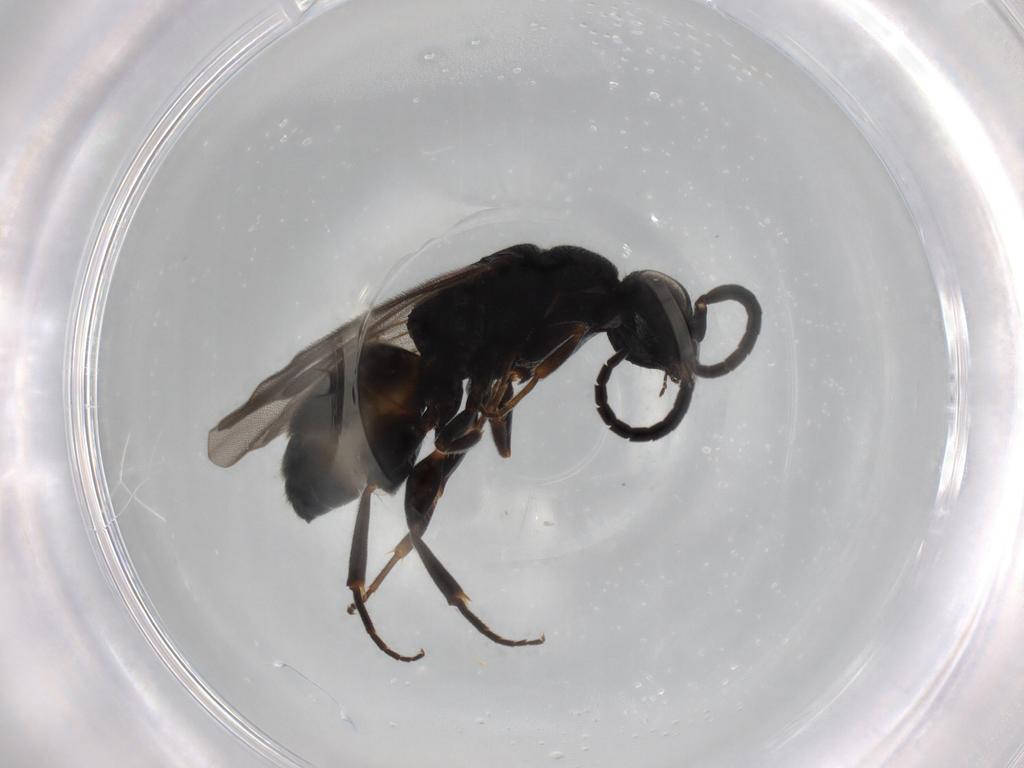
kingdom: Animalia
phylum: Arthropoda
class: Insecta
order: Hymenoptera
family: Chrysididae
